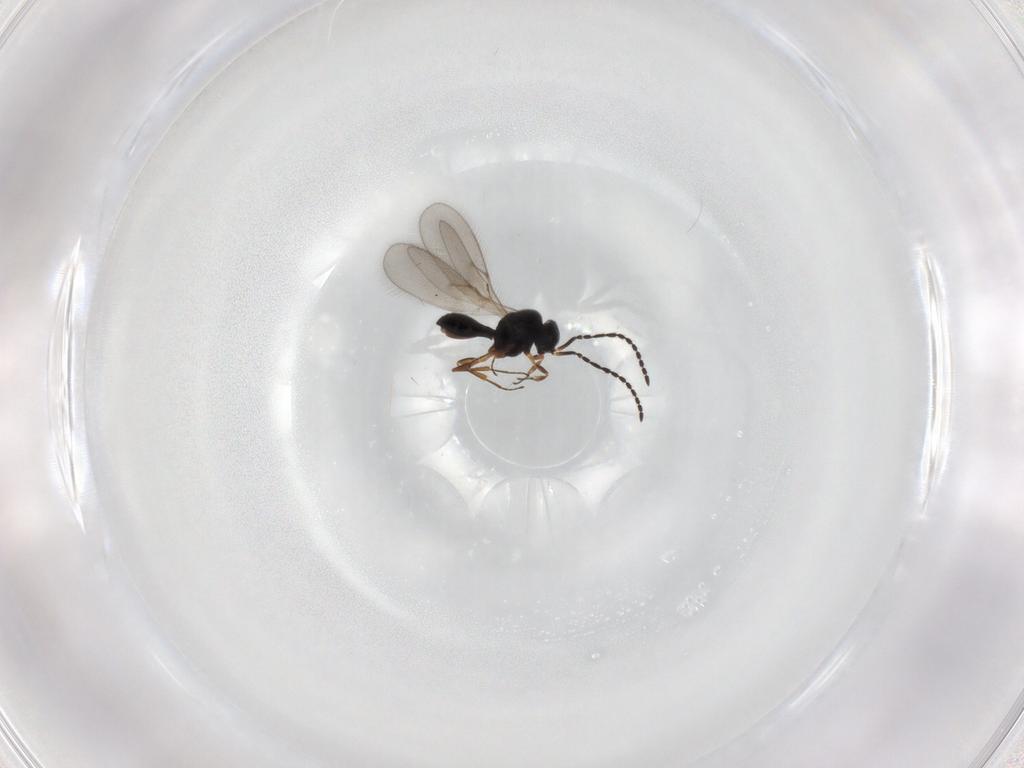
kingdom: Animalia
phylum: Arthropoda
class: Insecta
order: Hymenoptera
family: Scelionidae
